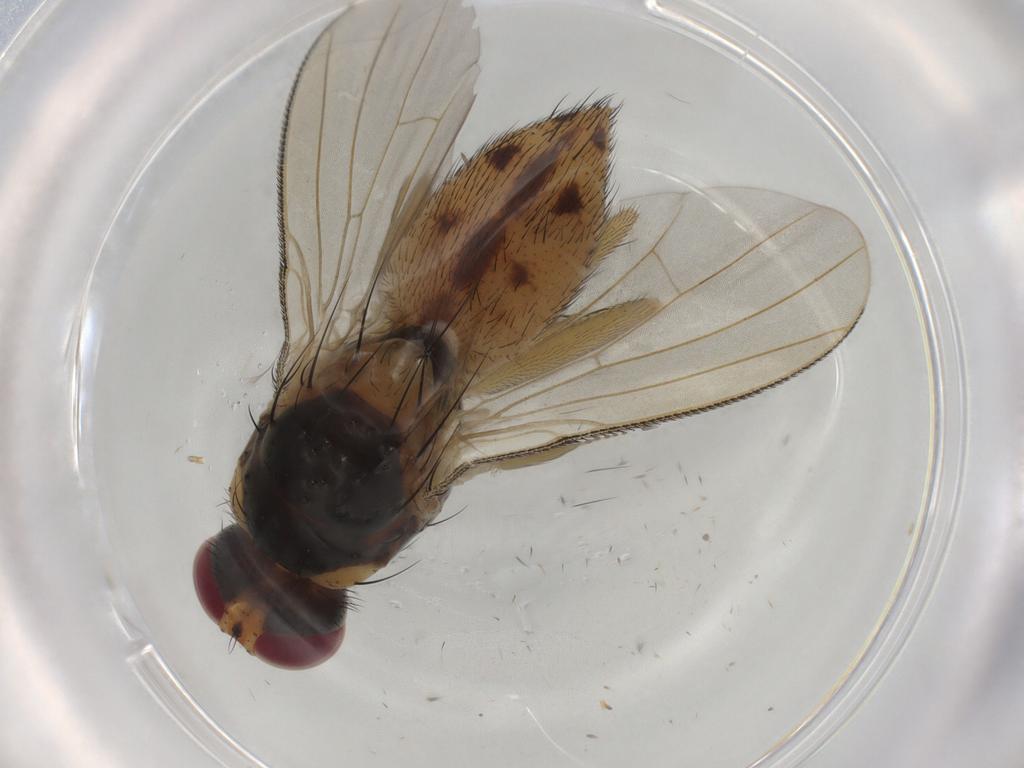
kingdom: Animalia
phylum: Arthropoda
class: Insecta
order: Diptera
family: Muscidae
